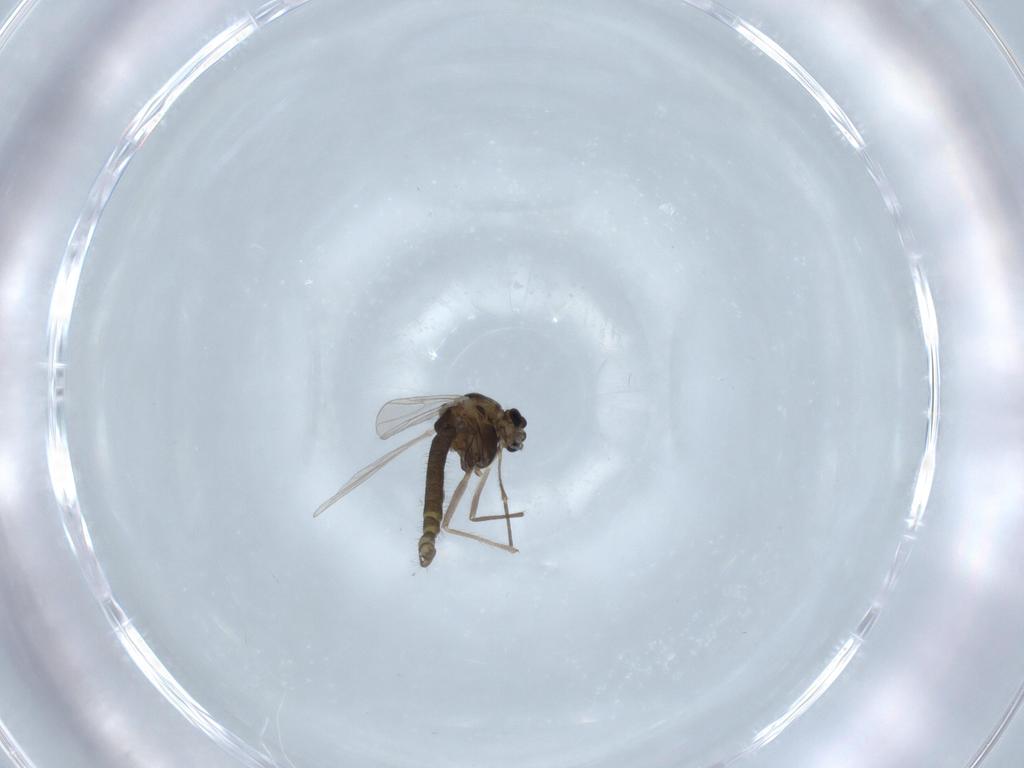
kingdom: Animalia
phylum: Arthropoda
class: Insecta
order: Diptera
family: Chironomidae
